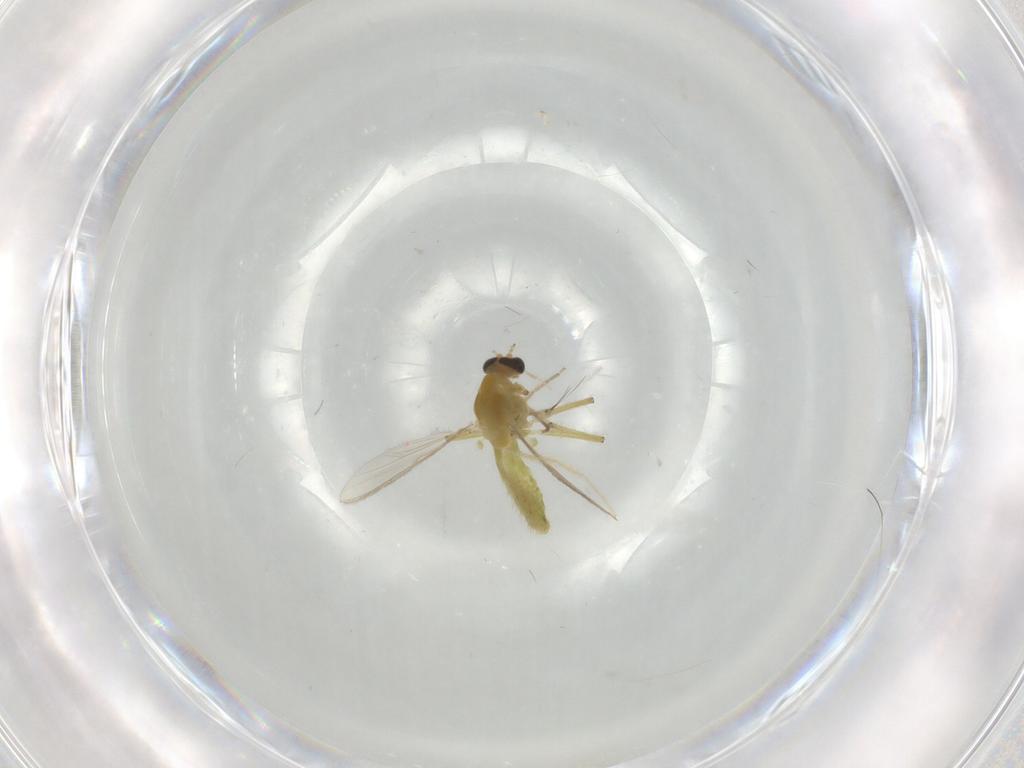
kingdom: Animalia
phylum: Arthropoda
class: Insecta
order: Diptera
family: Chironomidae
